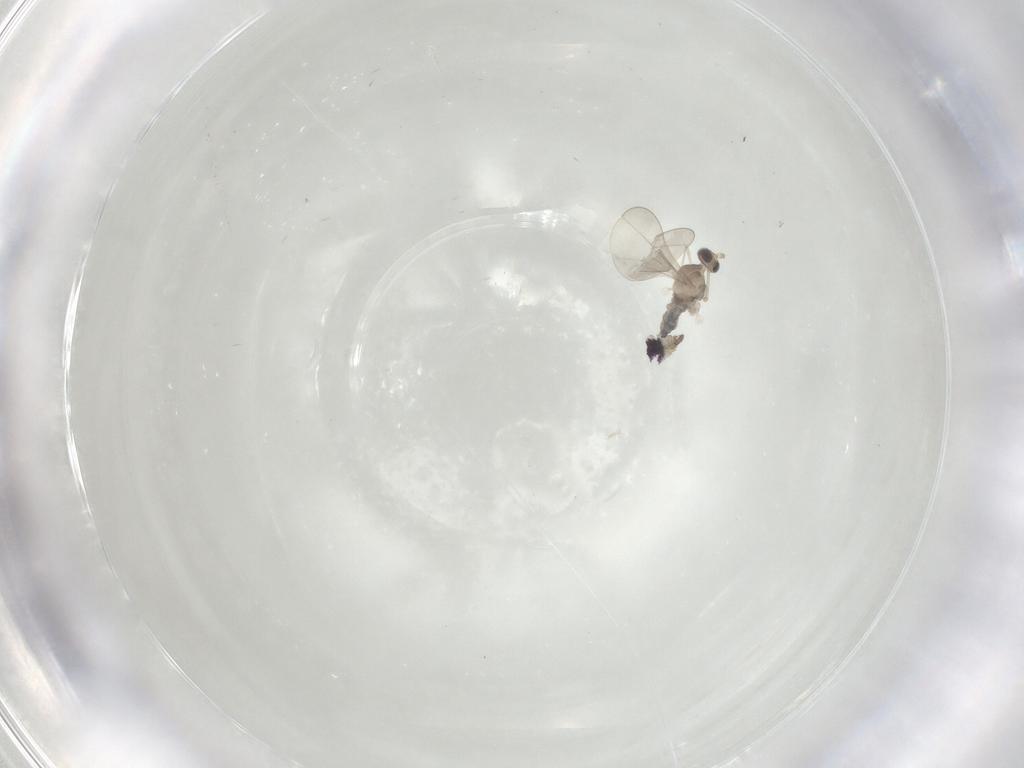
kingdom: Animalia
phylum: Arthropoda
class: Insecta
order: Diptera
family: Cecidomyiidae
